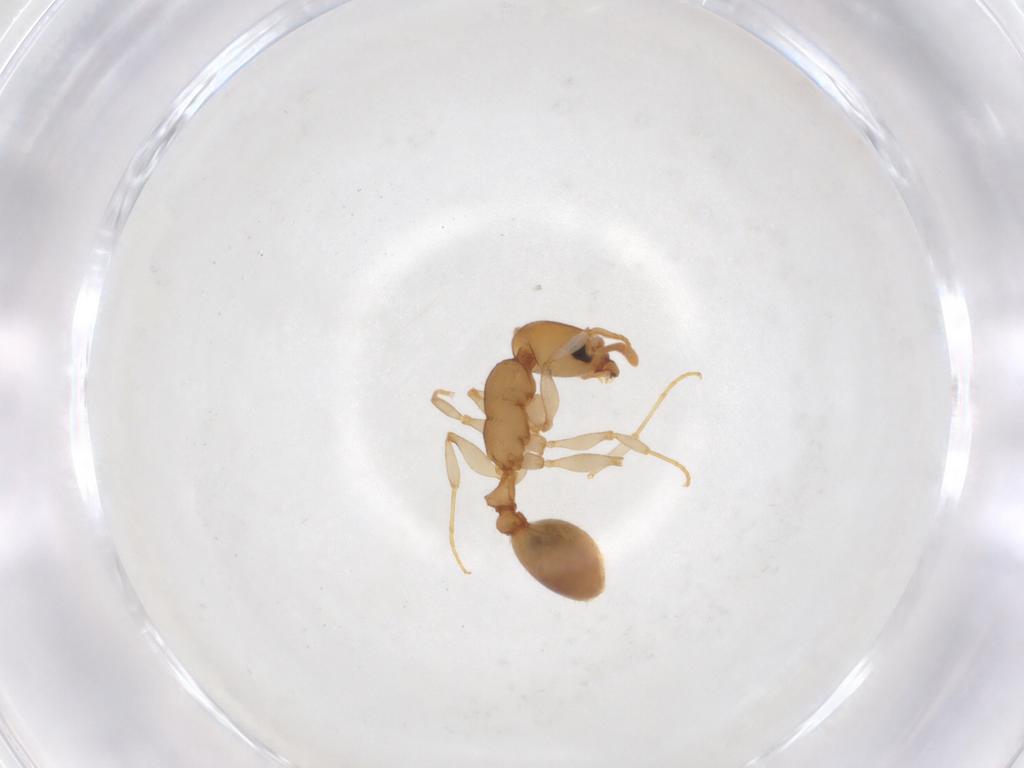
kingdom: Animalia
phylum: Arthropoda
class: Insecta
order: Hymenoptera
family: Formicidae
